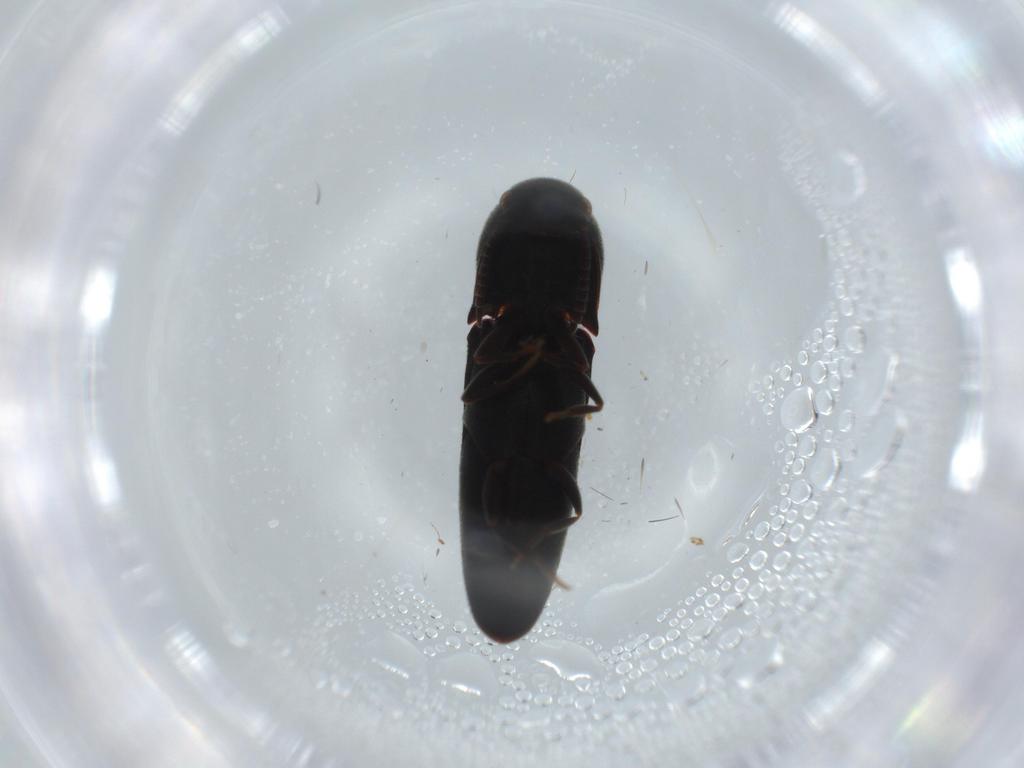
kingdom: Animalia
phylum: Arthropoda
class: Insecta
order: Coleoptera
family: Eucnemidae
